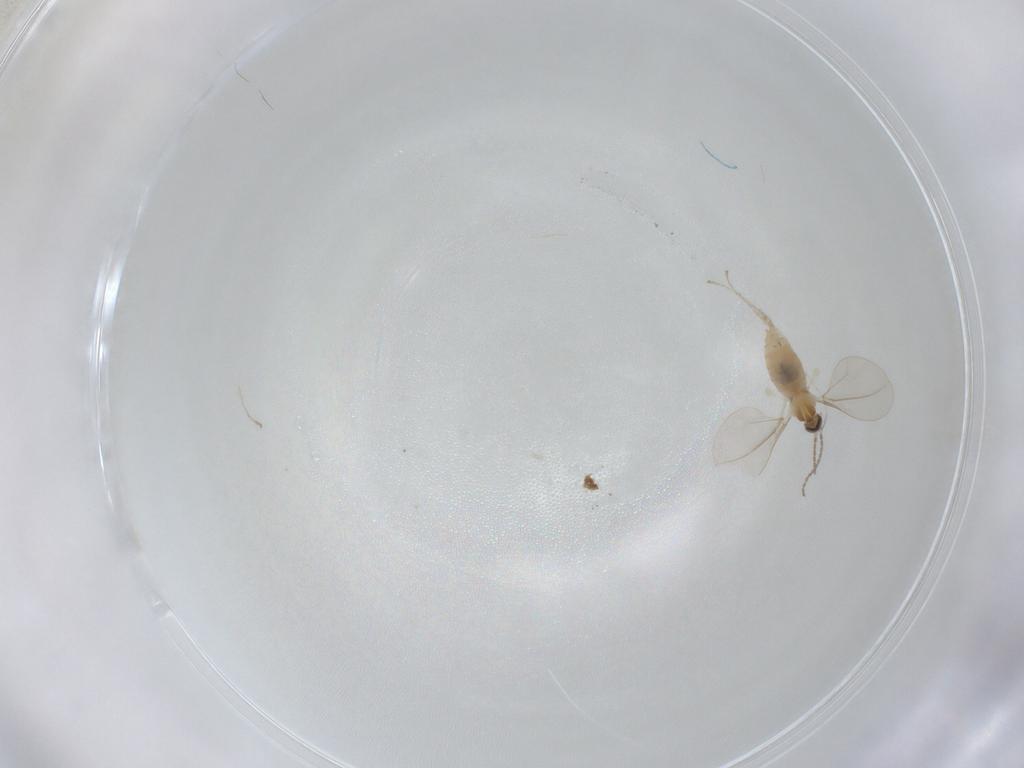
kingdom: Animalia
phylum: Arthropoda
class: Insecta
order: Diptera
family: Cecidomyiidae
